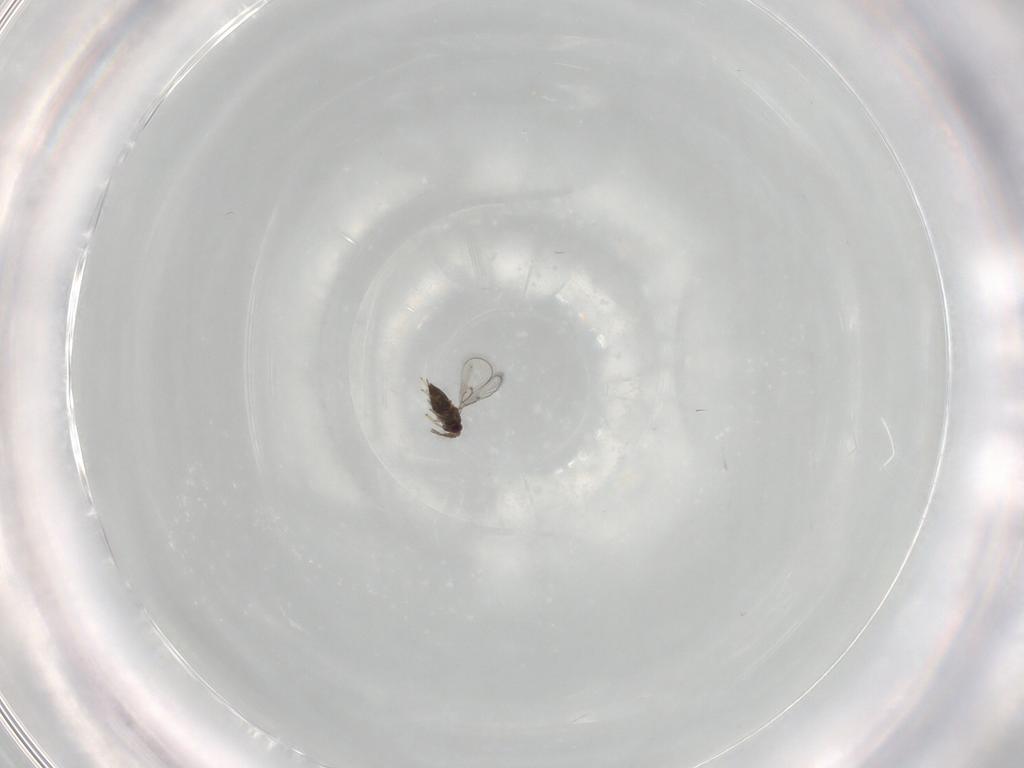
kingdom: Animalia
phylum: Arthropoda
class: Insecta
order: Hymenoptera
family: Trichogrammatidae
